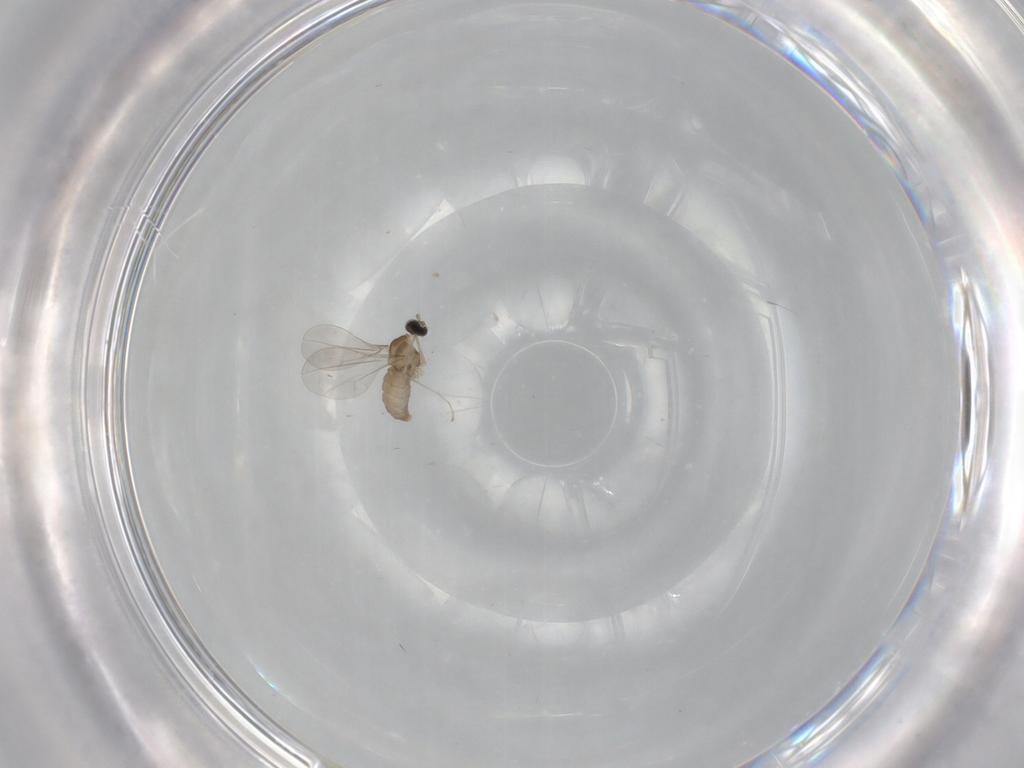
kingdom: Animalia
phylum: Arthropoda
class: Insecta
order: Diptera
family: Cecidomyiidae
